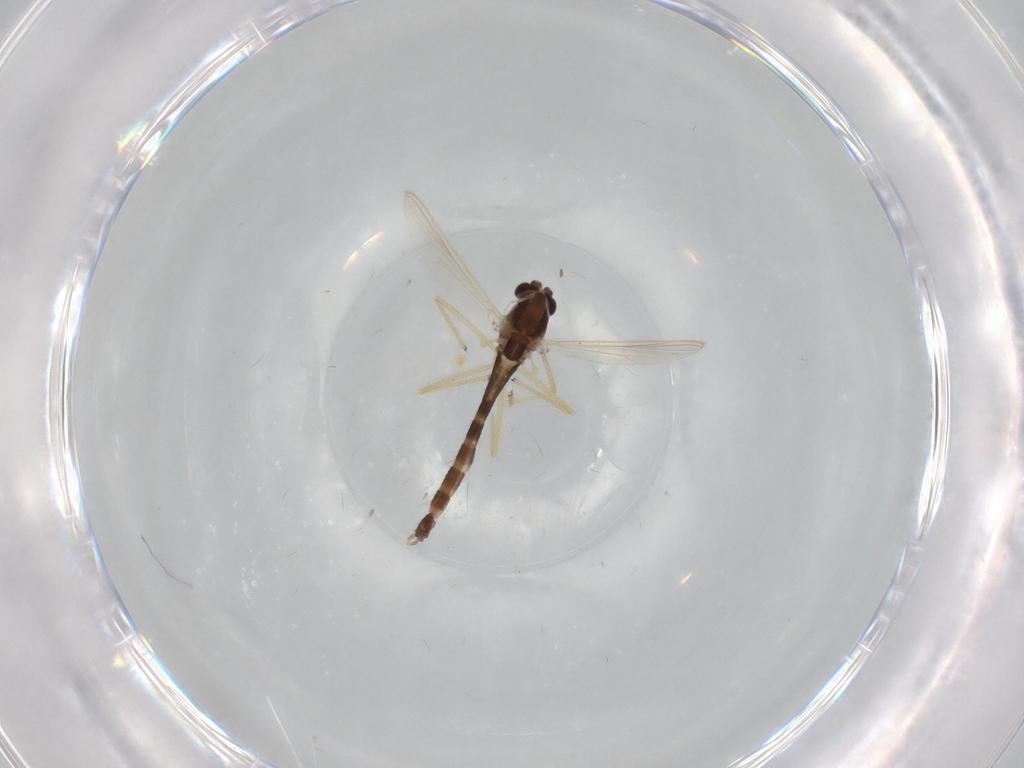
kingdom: Animalia
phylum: Arthropoda
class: Insecta
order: Diptera
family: Chironomidae
